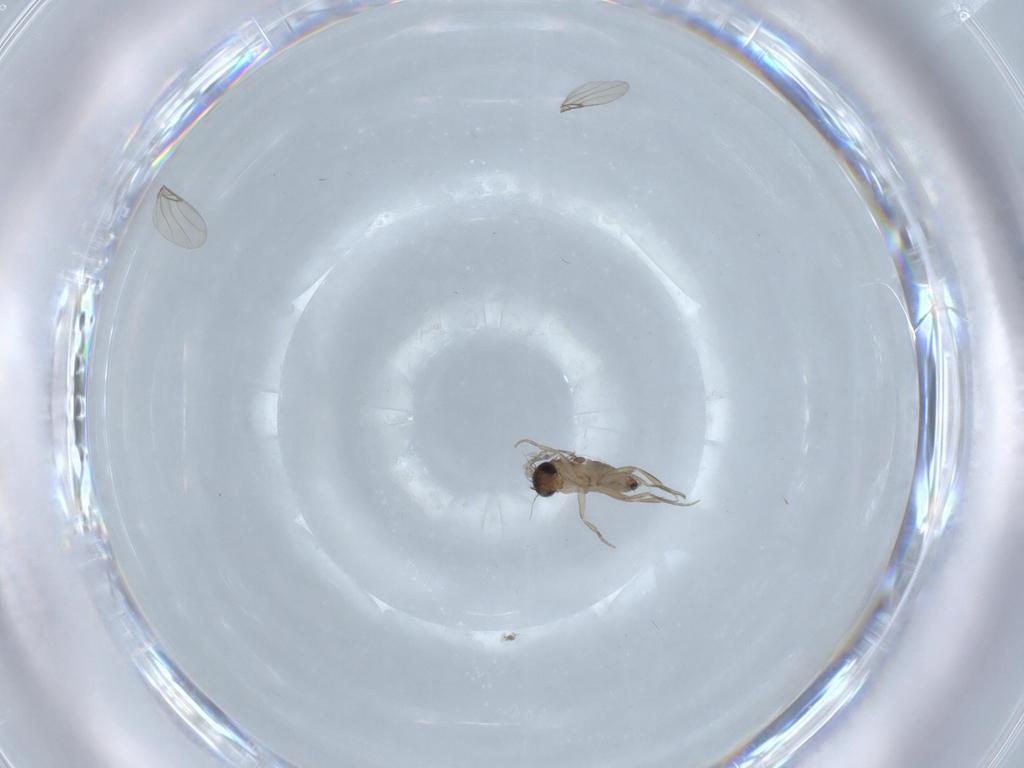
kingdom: Animalia
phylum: Arthropoda
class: Insecta
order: Diptera
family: Phoridae
